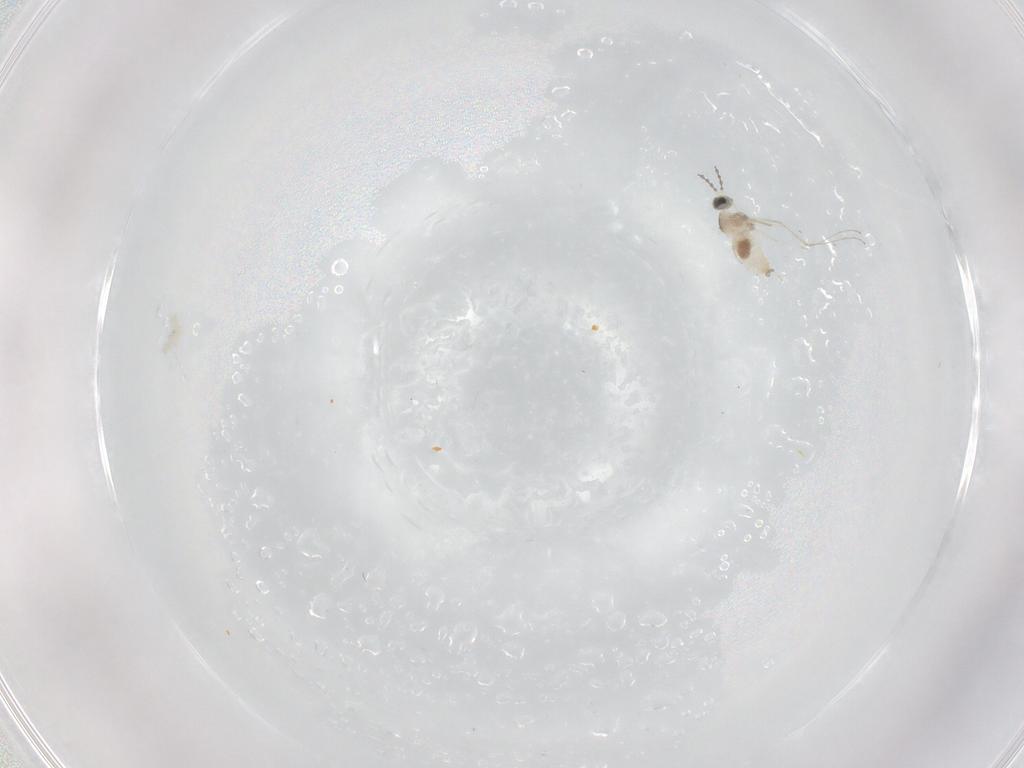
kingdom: Animalia
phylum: Arthropoda
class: Insecta
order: Diptera
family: Cecidomyiidae
